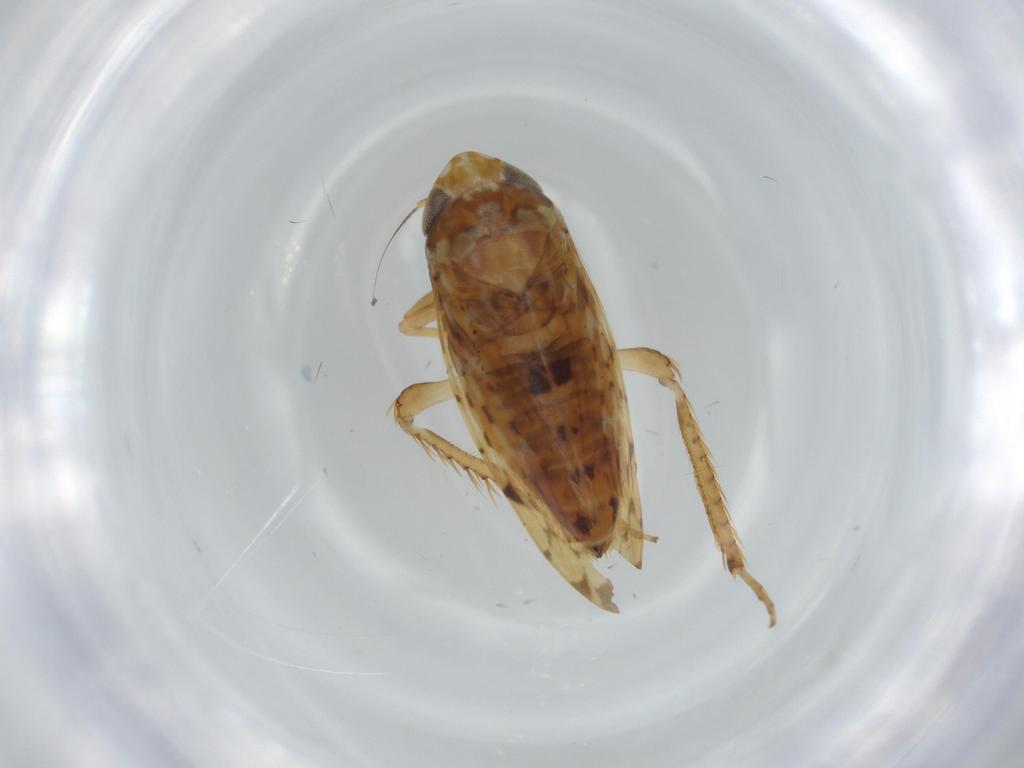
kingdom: Animalia
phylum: Arthropoda
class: Insecta
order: Hemiptera
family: Cicadellidae
